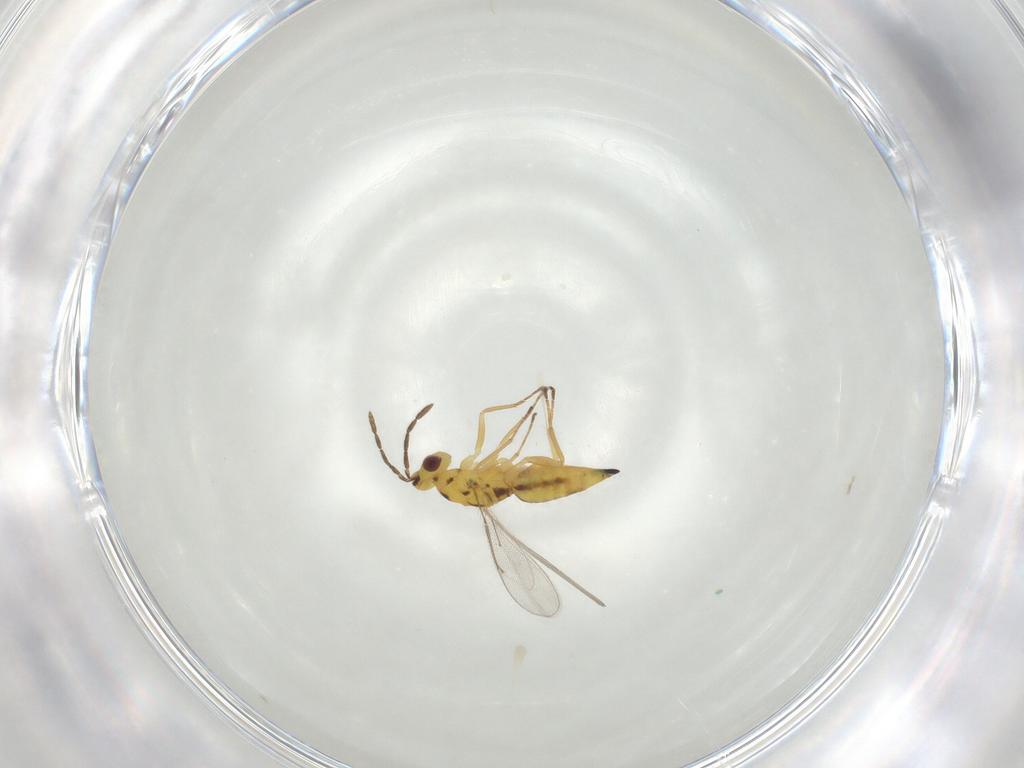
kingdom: Animalia
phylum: Arthropoda
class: Insecta
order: Hymenoptera
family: Eulophidae
